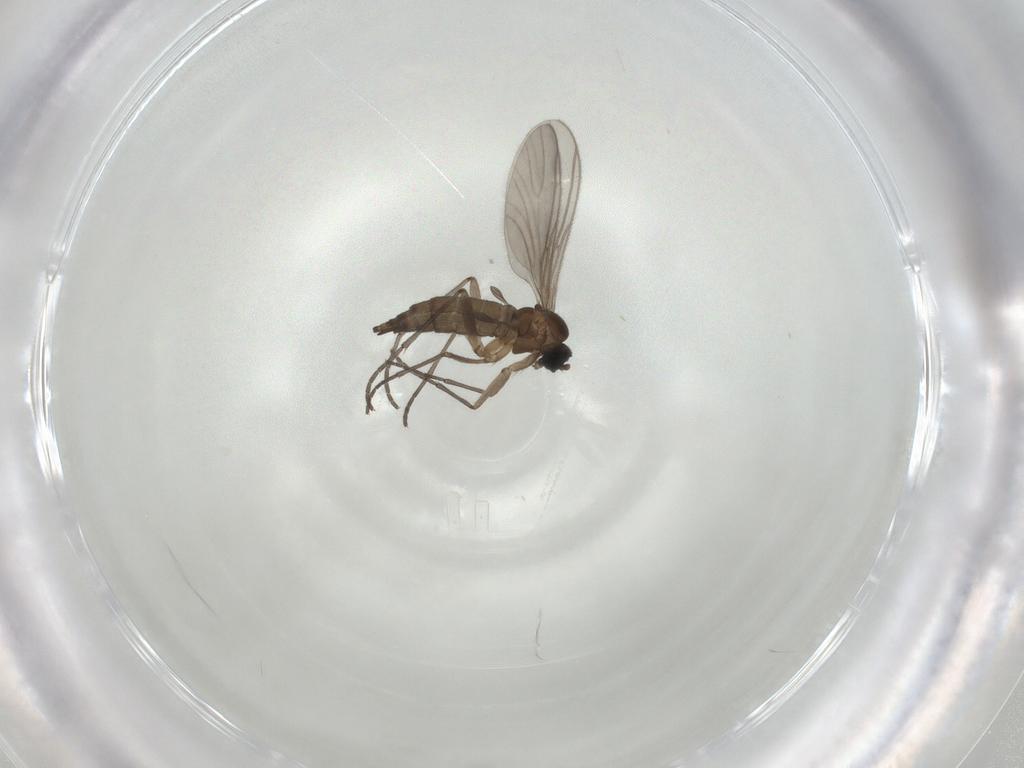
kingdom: Animalia
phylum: Arthropoda
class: Insecta
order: Diptera
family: Sciaridae
